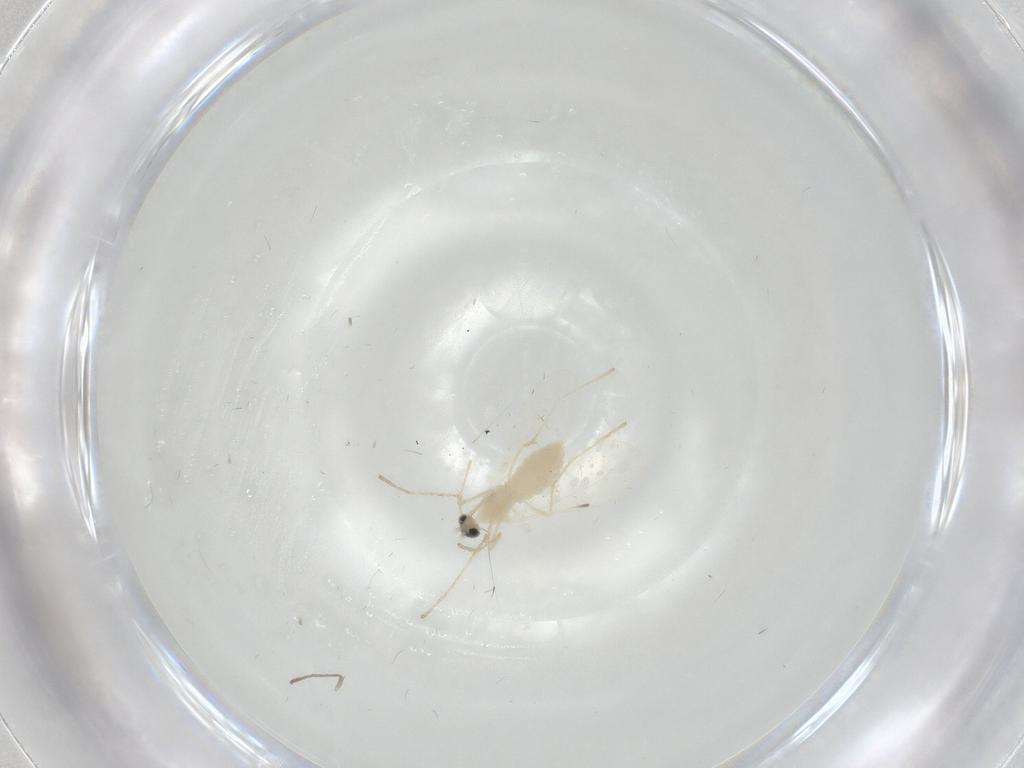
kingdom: Animalia
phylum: Arthropoda
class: Insecta
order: Diptera
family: Cecidomyiidae
